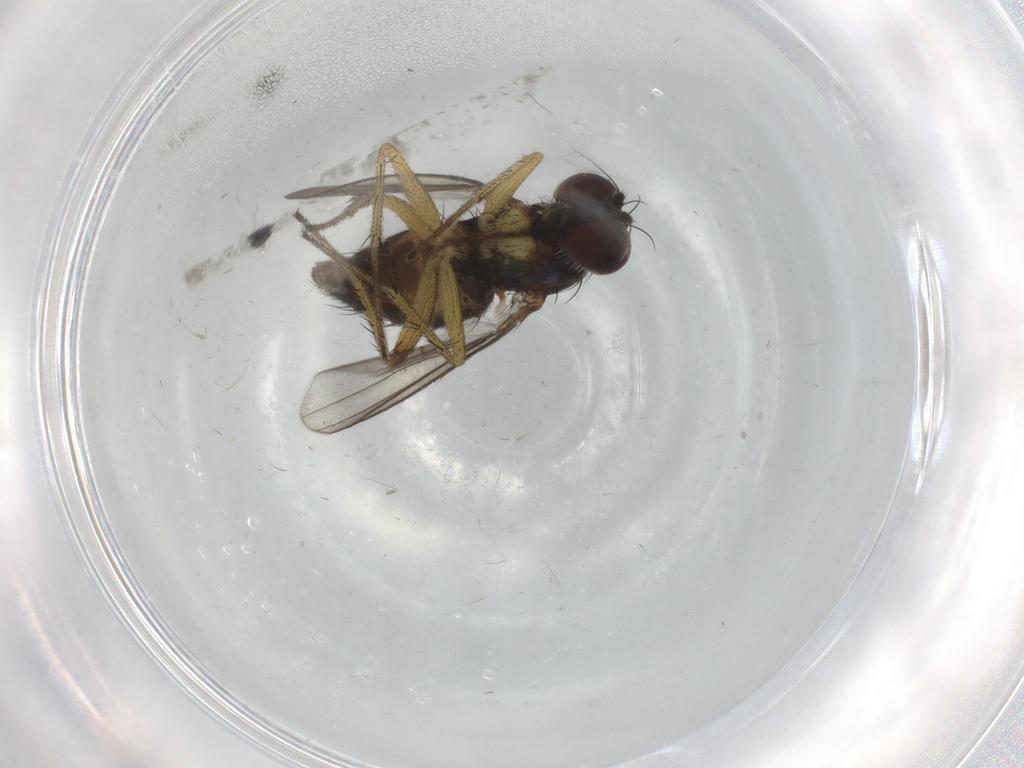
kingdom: Animalia
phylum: Arthropoda
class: Insecta
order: Diptera
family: Dolichopodidae
